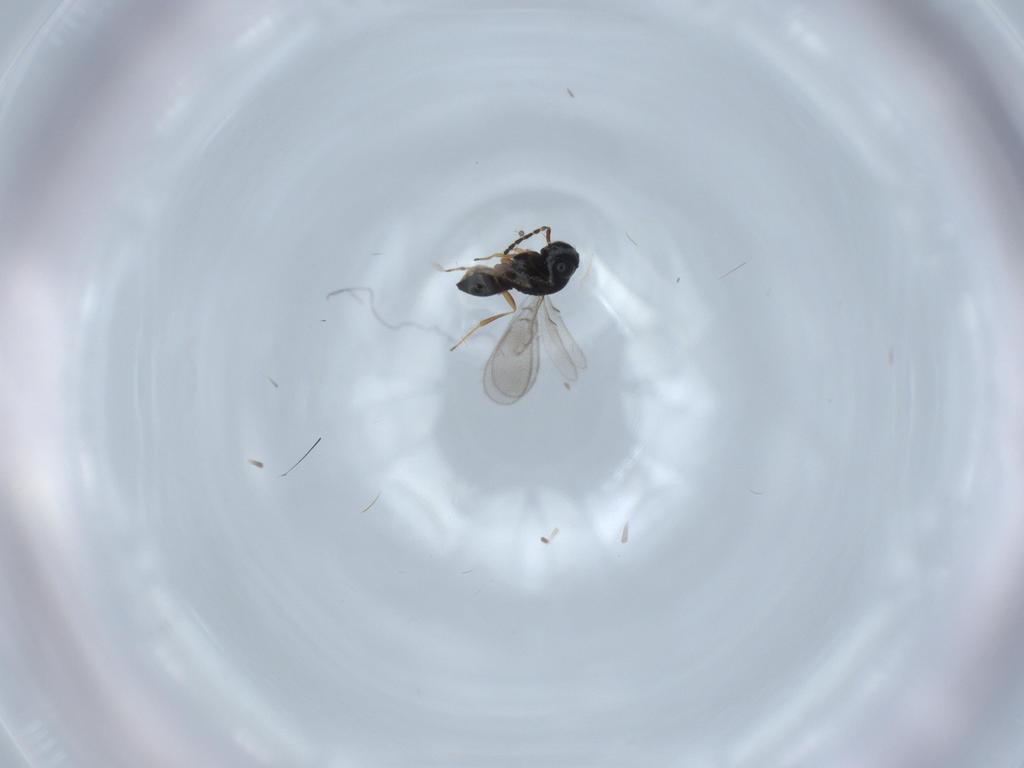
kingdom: Animalia
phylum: Arthropoda
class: Insecta
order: Hymenoptera
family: Scelionidae
